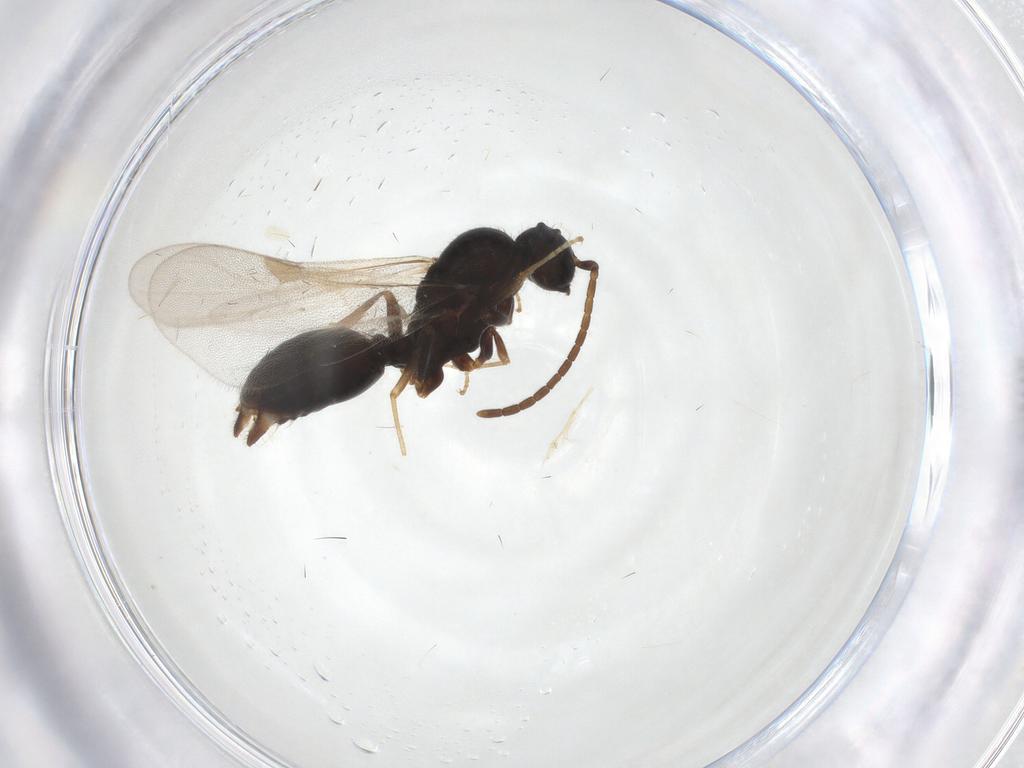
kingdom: Animalia
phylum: Arthropoda
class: Insecta
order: Hymenoptera
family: Formicidae
